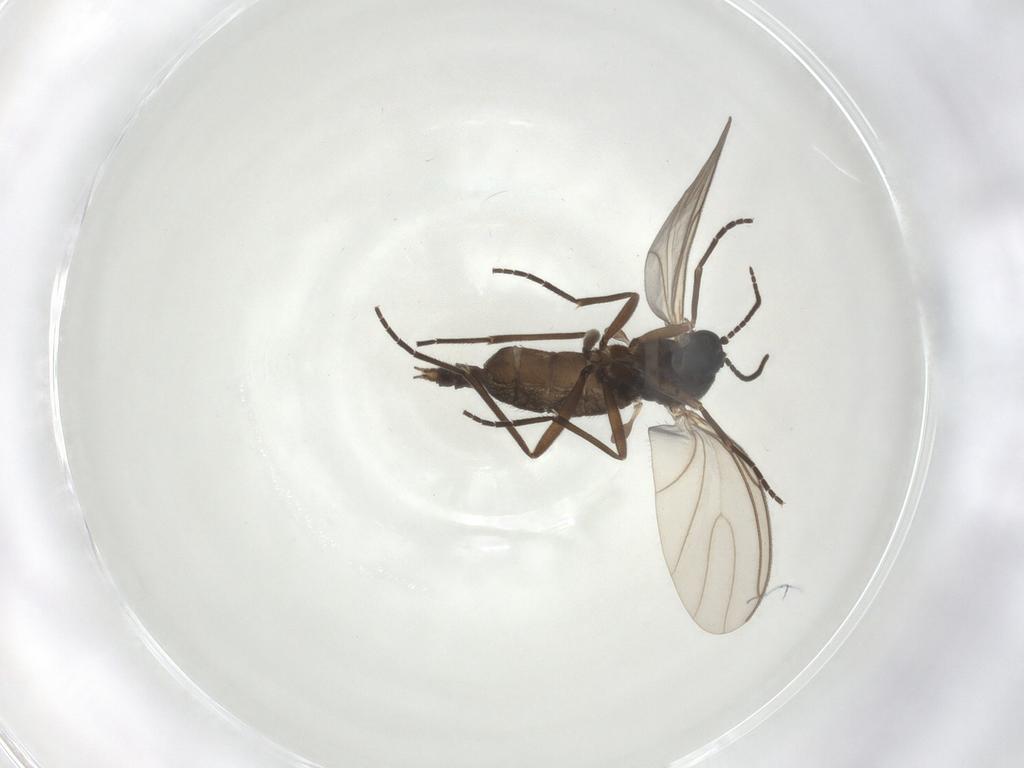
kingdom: Animalia
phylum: Arthropoda
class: Insecta
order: Diptera
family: Sciaridae
